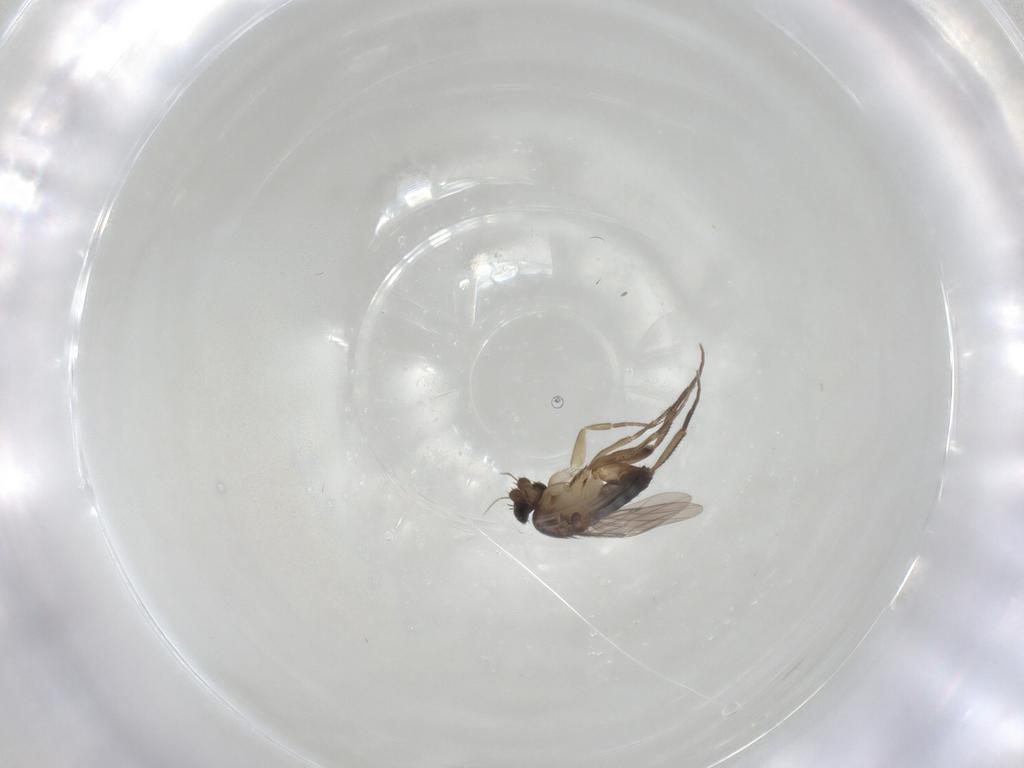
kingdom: Animalia
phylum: Arthropoda
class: Insecta
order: Diptera
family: Phoridae
